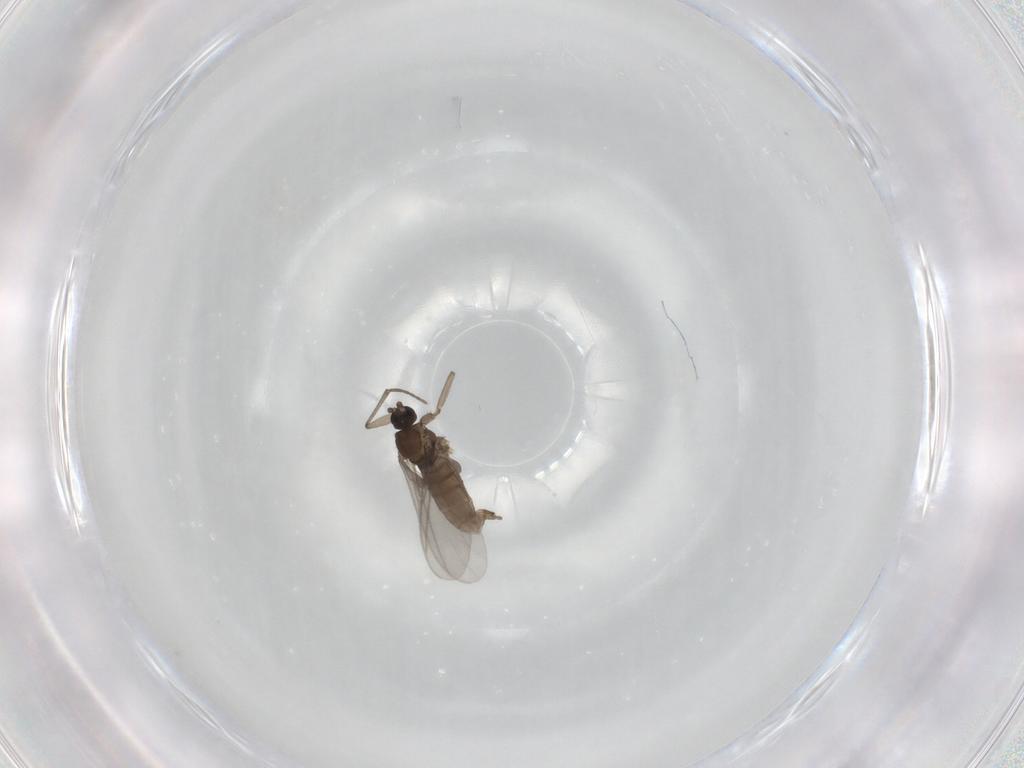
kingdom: Animalia
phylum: Arthropoda
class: Insecta
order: Diptera
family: Sciaridae
